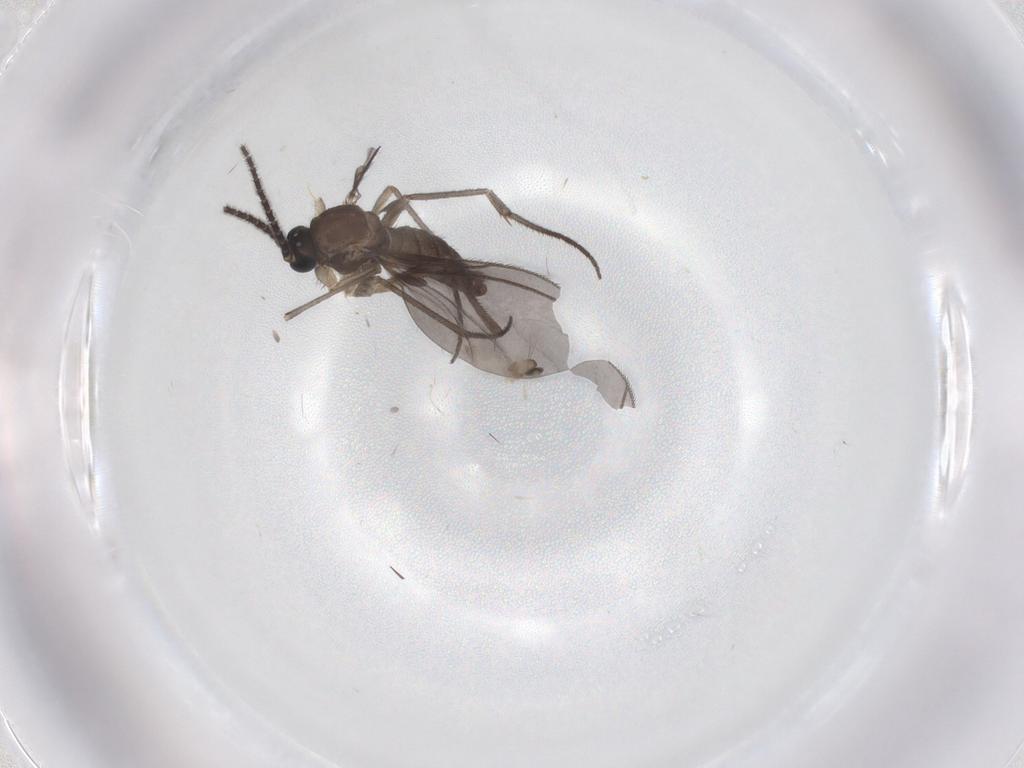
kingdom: Animalia
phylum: Arthropoda
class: Insecta
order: Diptera
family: Sciaridae
